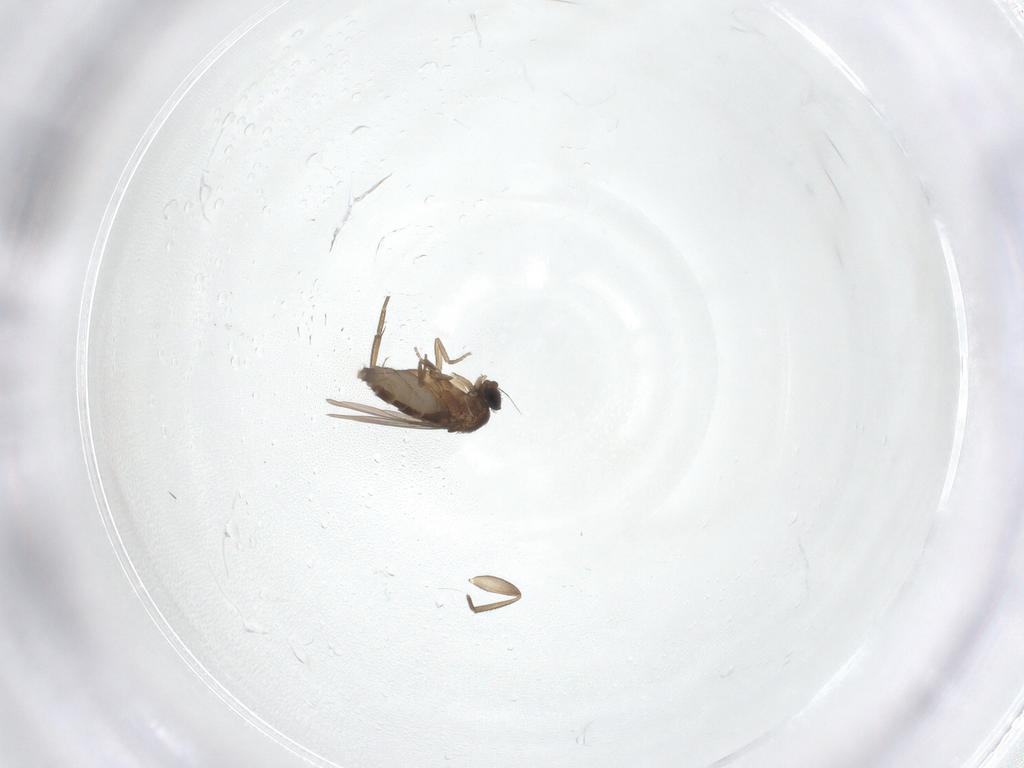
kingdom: Animalia
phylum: Arthropoda
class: Insecta
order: Diptera
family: Phoridae
